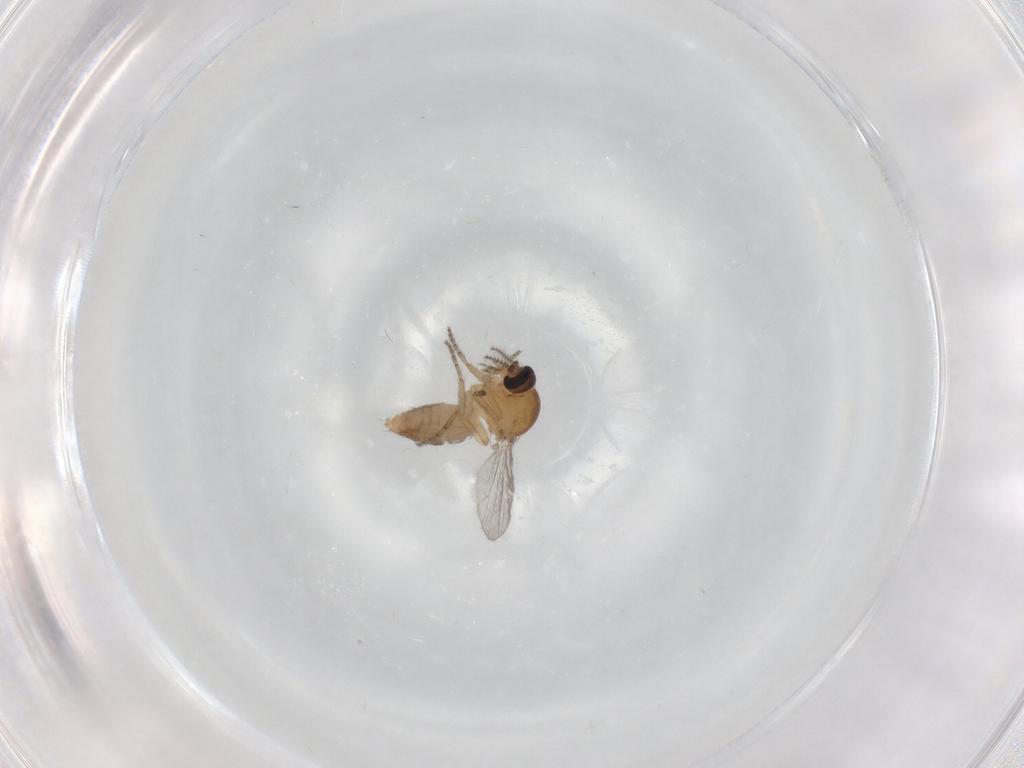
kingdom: Animalia
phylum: Arthropoda
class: Insecta
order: Diptera
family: Ceratopogonidae
